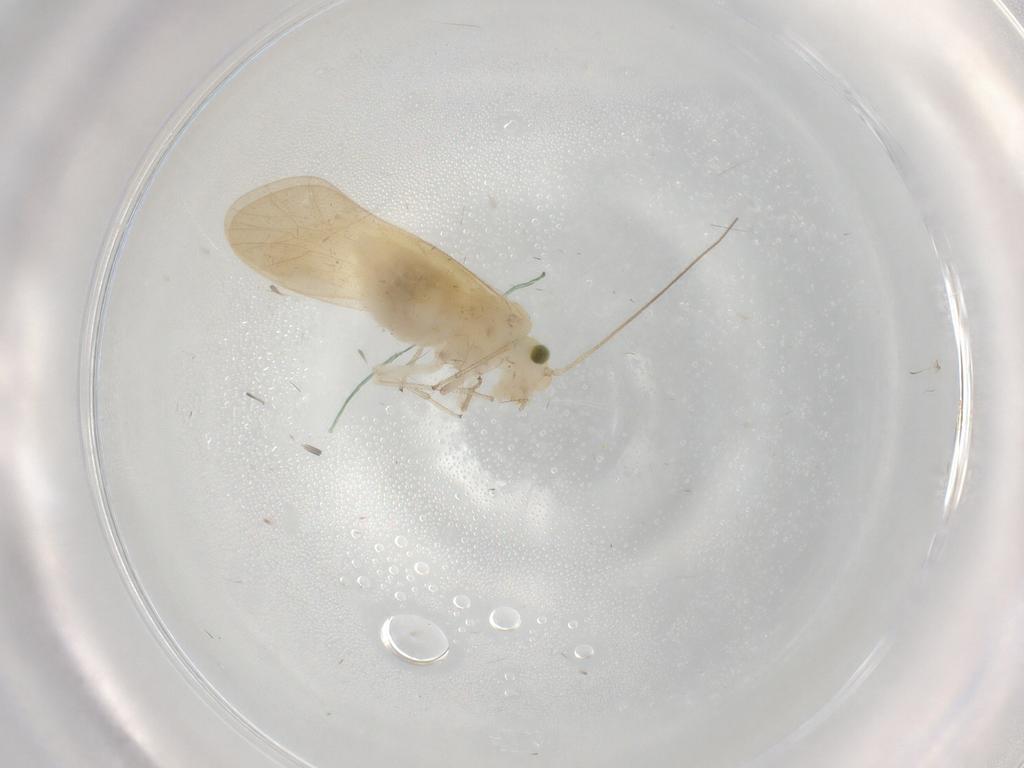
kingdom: Animalia
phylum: Arthropoda
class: Insecta
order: Psocodea
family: Caeciliusidae
